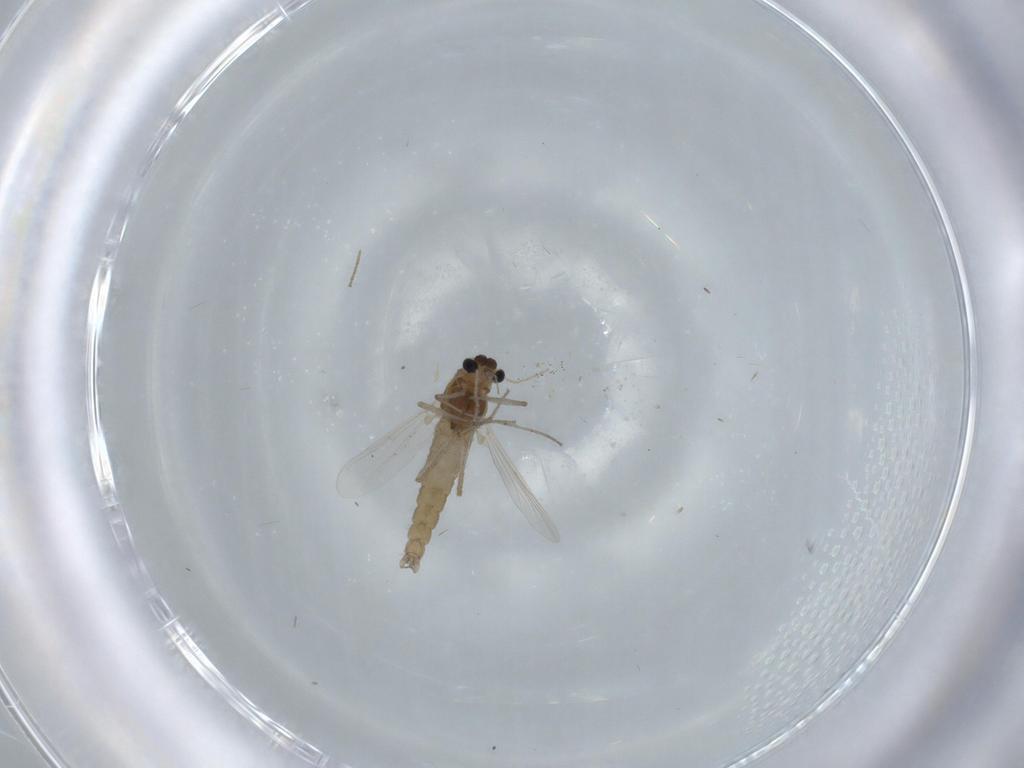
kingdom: Animalia
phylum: Arthropoda
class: Insecta
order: Diptera
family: Chironomidae
